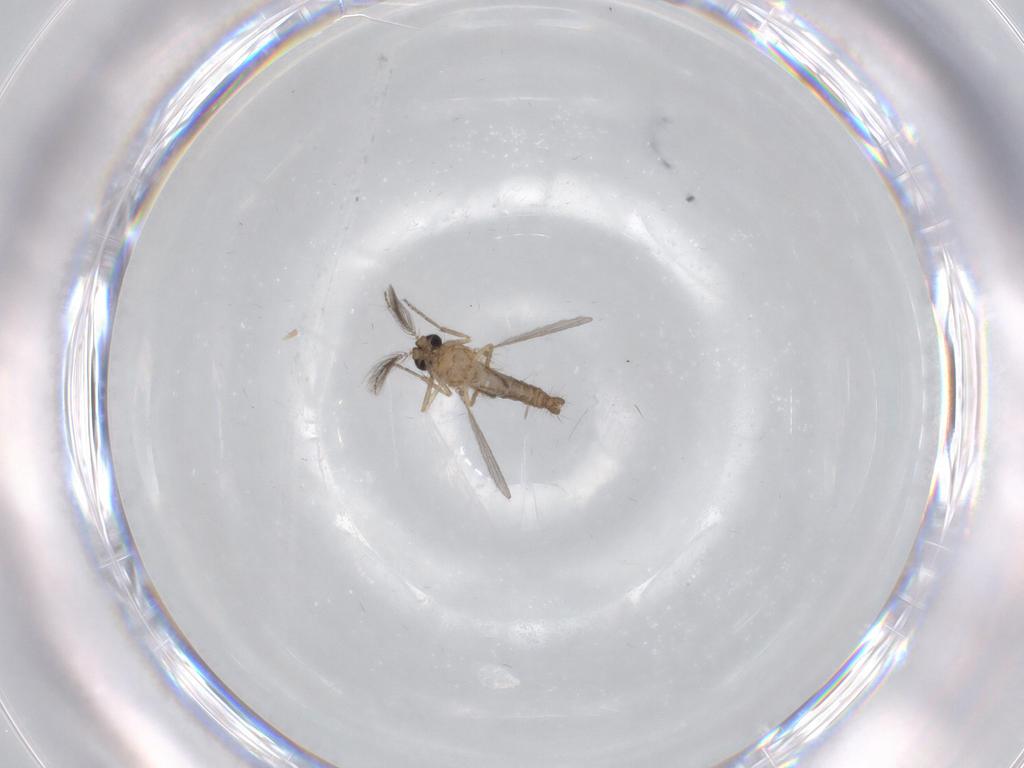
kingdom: Animalia
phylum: Arthropoda
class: Insecta
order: Diptera
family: Ceratopogonidae
